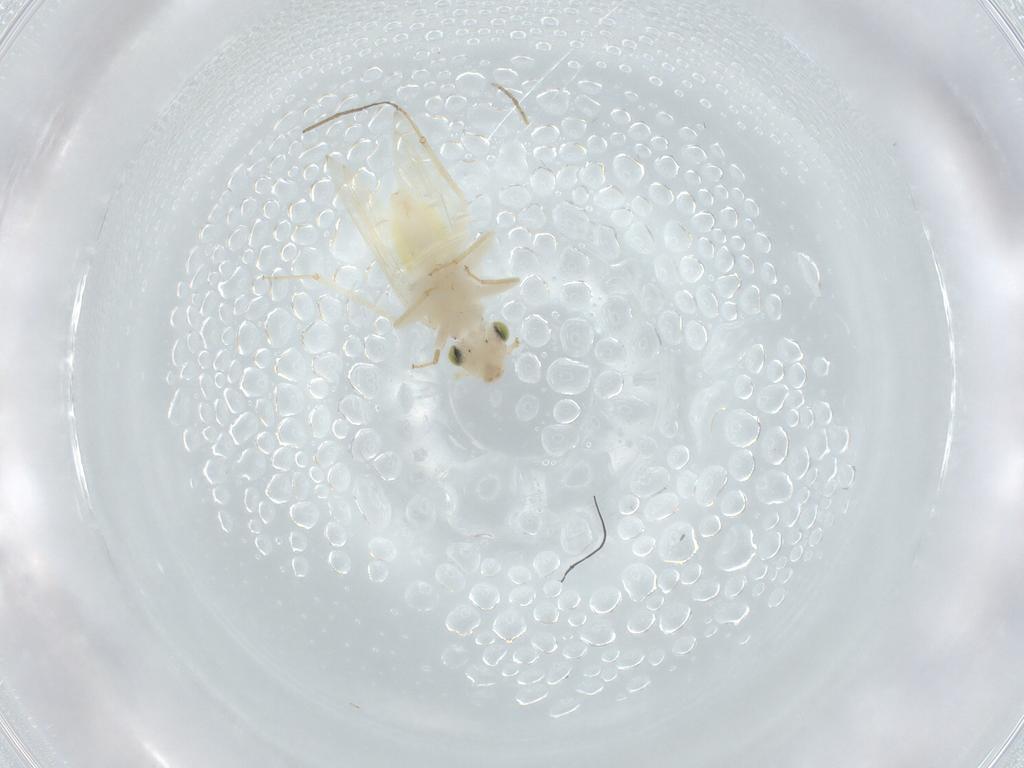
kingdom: Animalia
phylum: Arthropoda
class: Insecta
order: Psocodea
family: Lepidopsocidae
